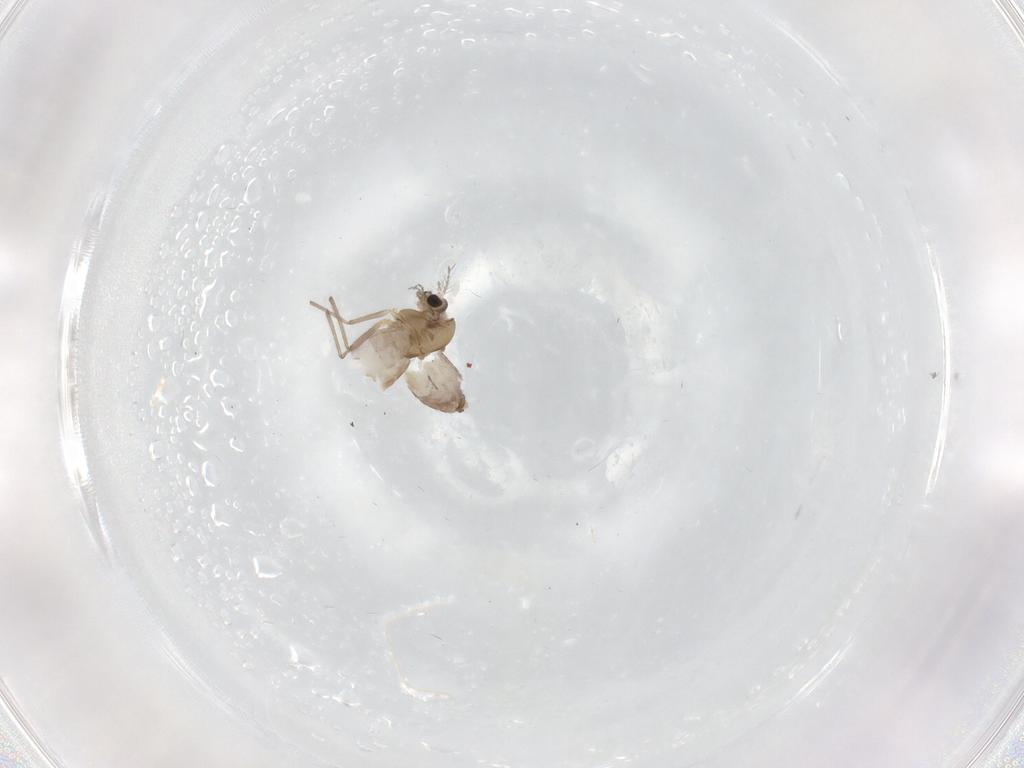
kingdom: Animalia
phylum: Arthropoda
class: Insecta
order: Diptera
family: Chironomidae
